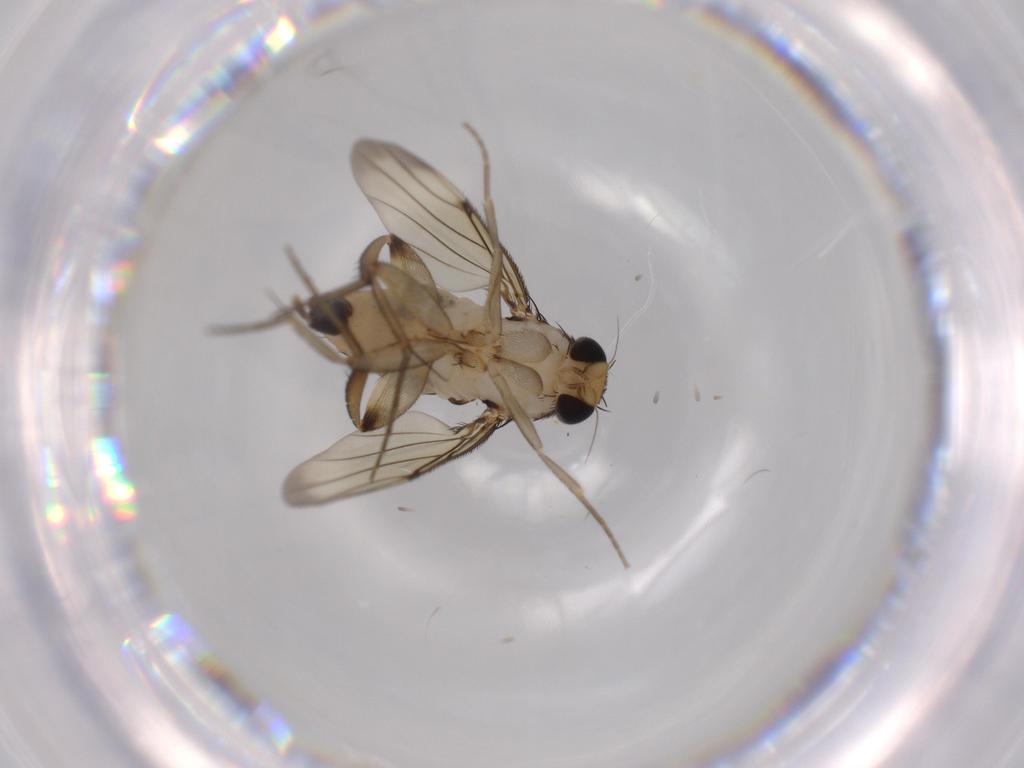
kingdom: Animalia
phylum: Arthropoda
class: Insecta
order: Diptera
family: Phoridae
